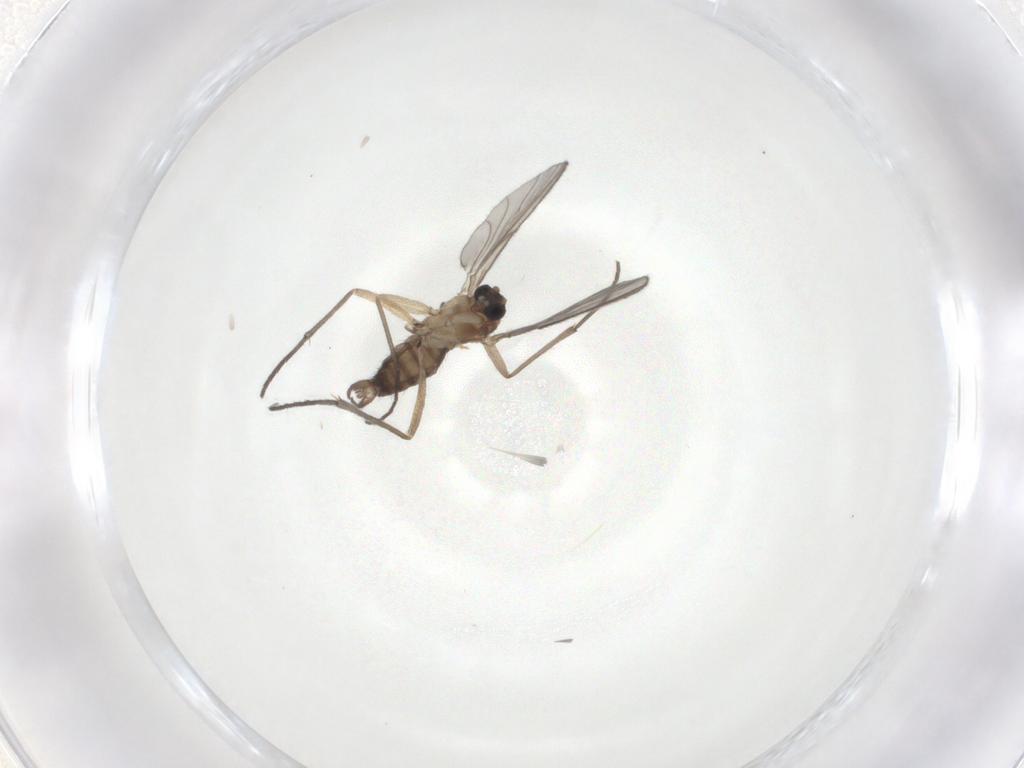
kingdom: Animalia
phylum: Arthropoda
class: Insecta
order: Diptera
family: Sciaridae
